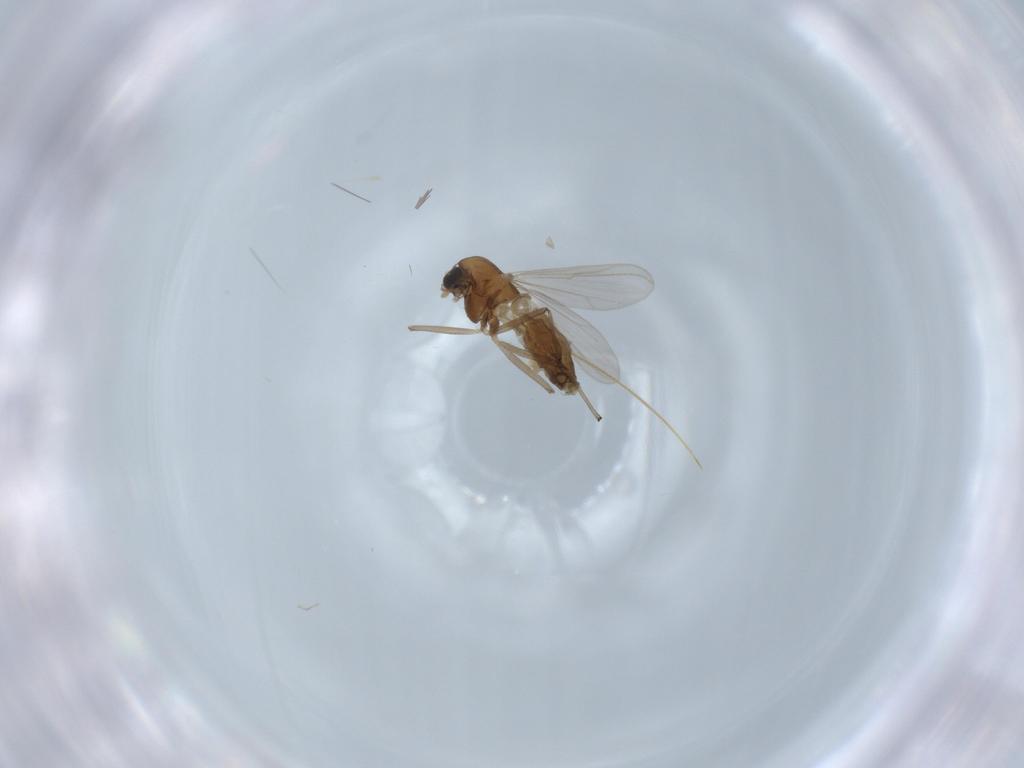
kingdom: Animalia
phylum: Arthropoda
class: Insecta
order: Diptera
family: Chironomidae
